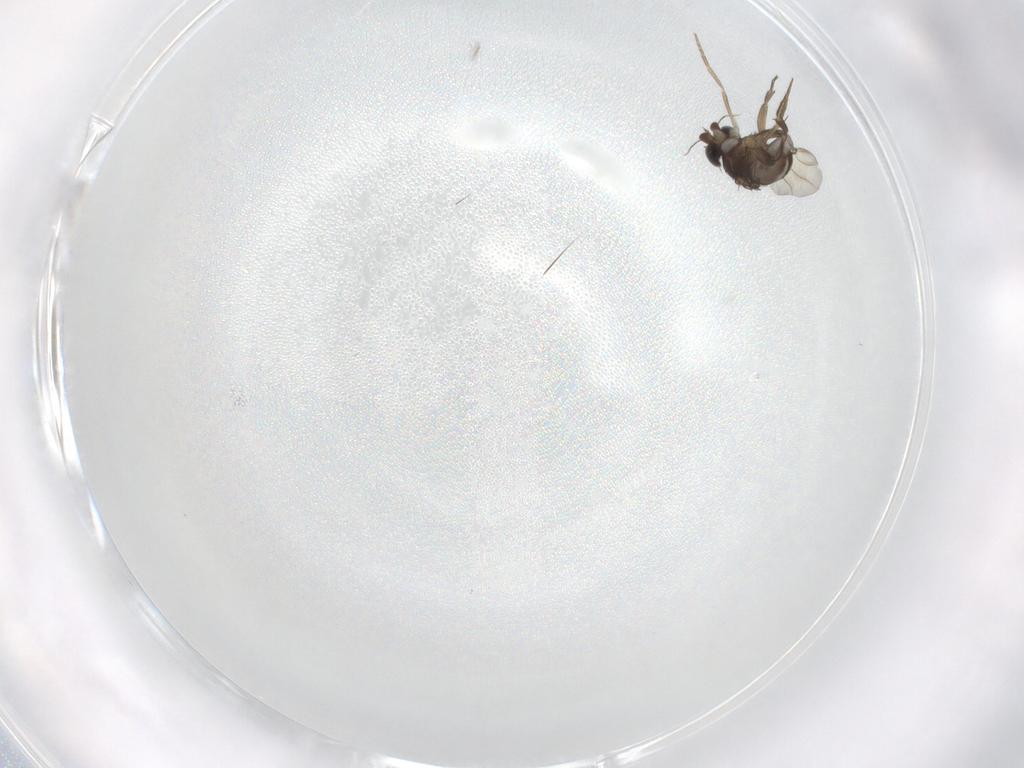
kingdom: Animalia
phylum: Arthropoda
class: Insecta
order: Diptera
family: Phoridae
